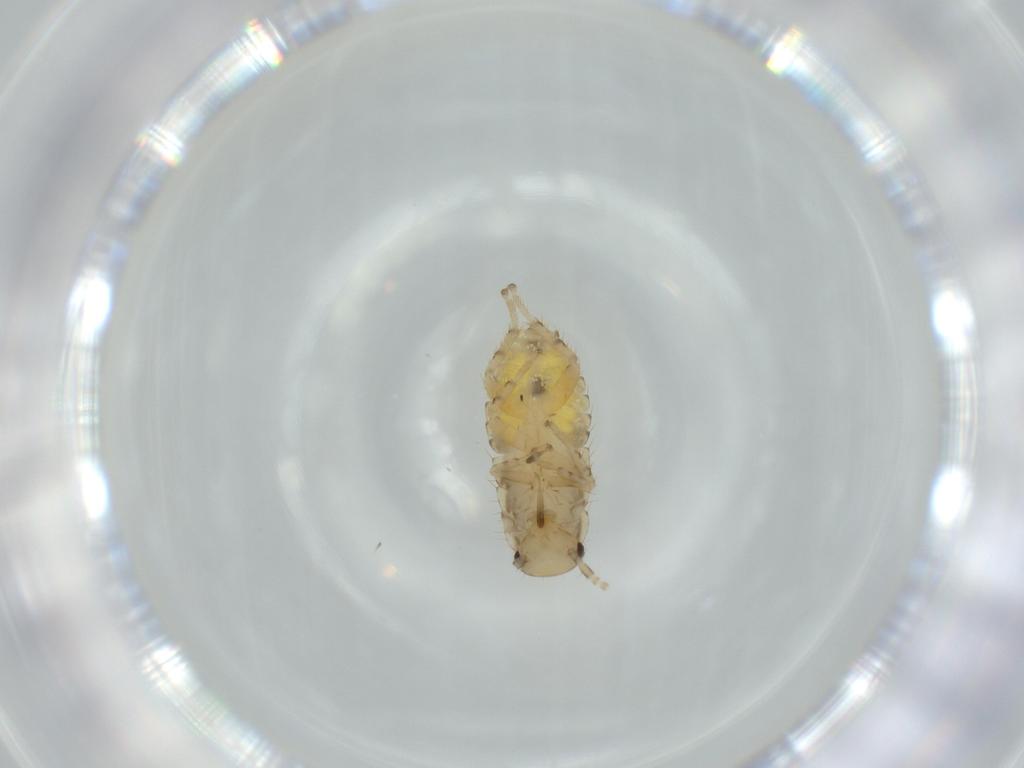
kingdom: Animalia
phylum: Arthropoda
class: Insecta
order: Blattodea
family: Ectobiidae
